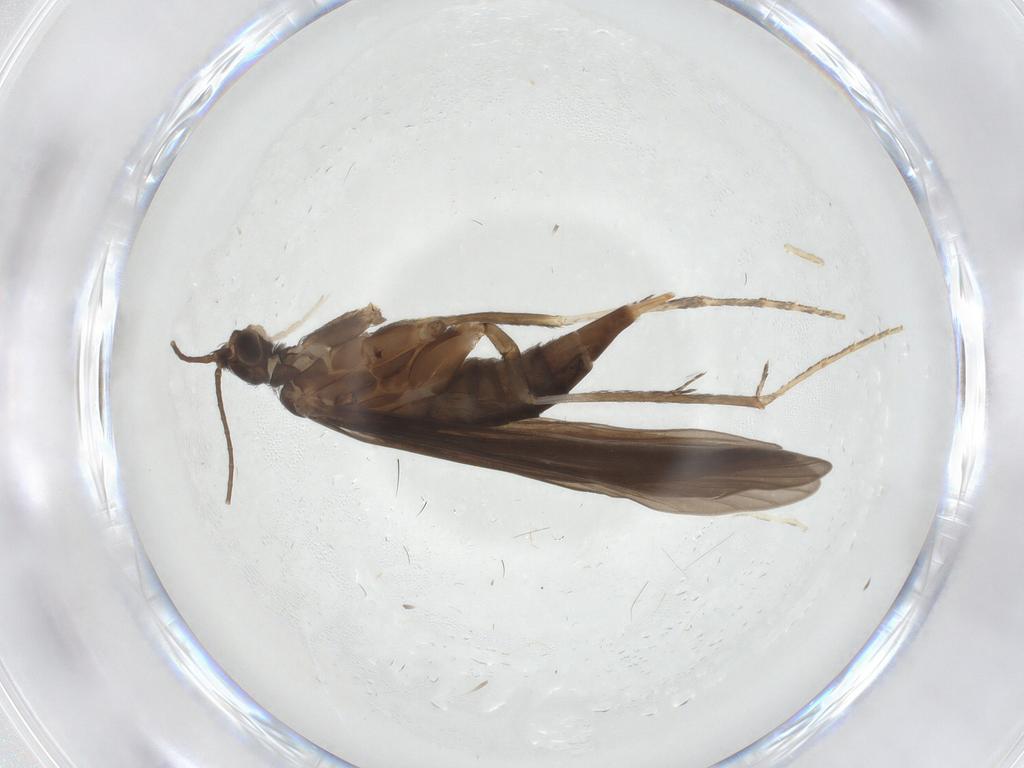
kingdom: Animalia
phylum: Arthropoda
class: Insecta
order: Trichoptera
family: Xiphocentronidae
